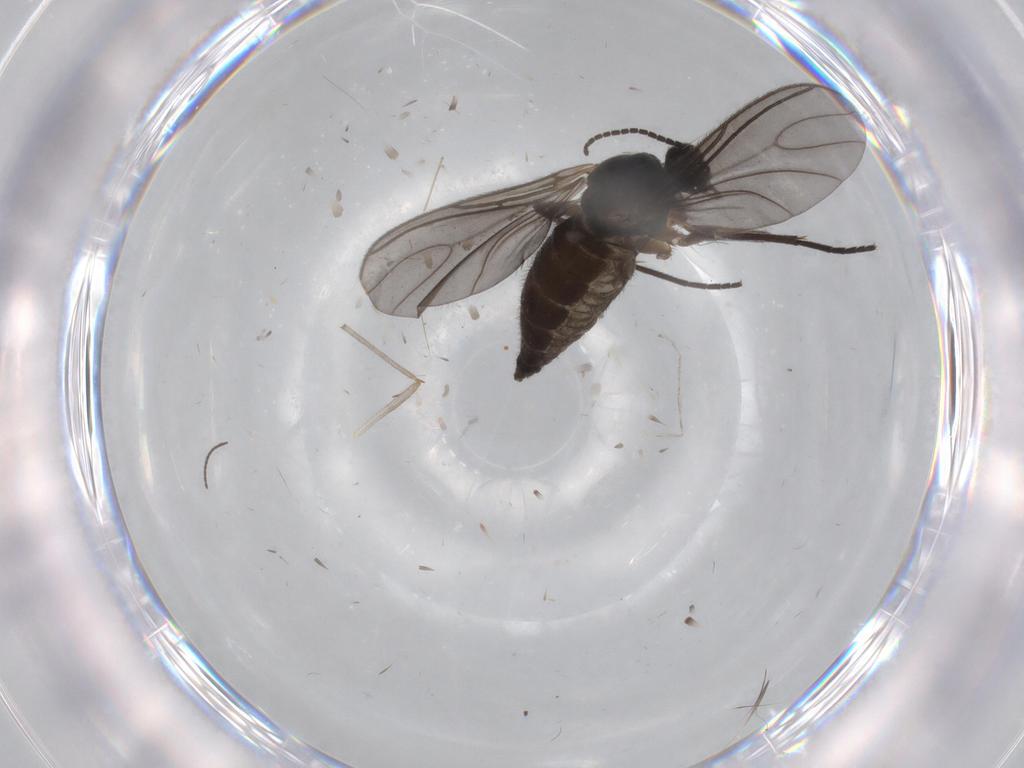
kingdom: Animalia
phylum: Arthropoda
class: Insecta
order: Diptera
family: Sciaridae
